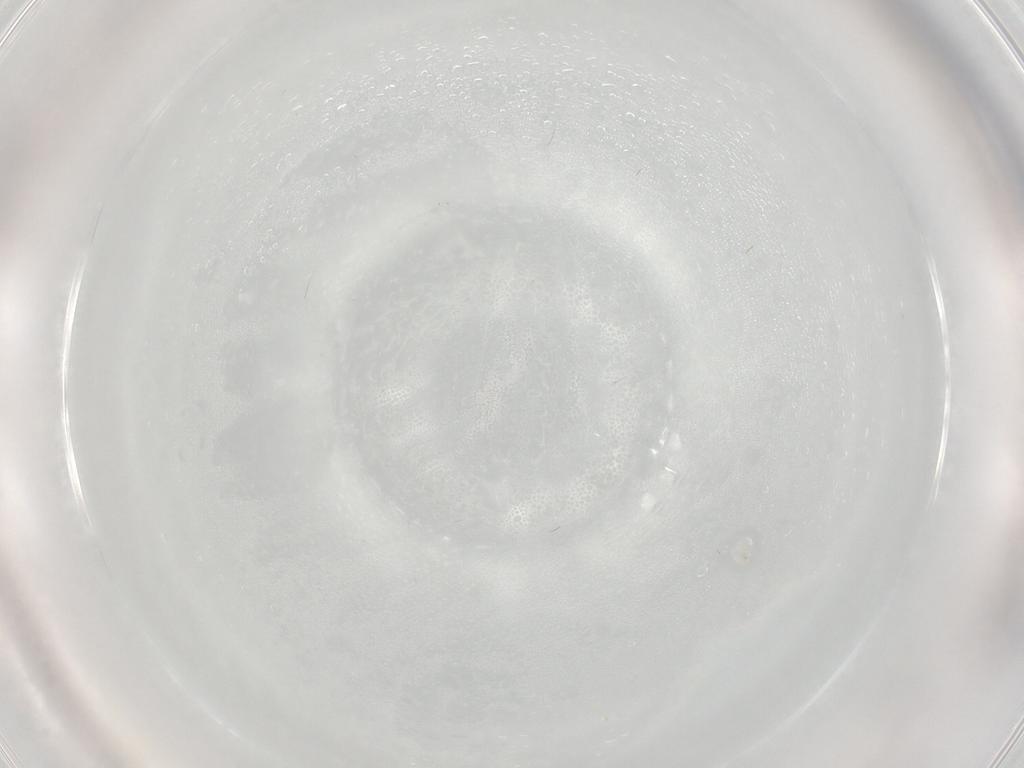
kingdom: Animalia
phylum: Arthropoda
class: Insecta
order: Diptera
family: Cecidomyiidae
